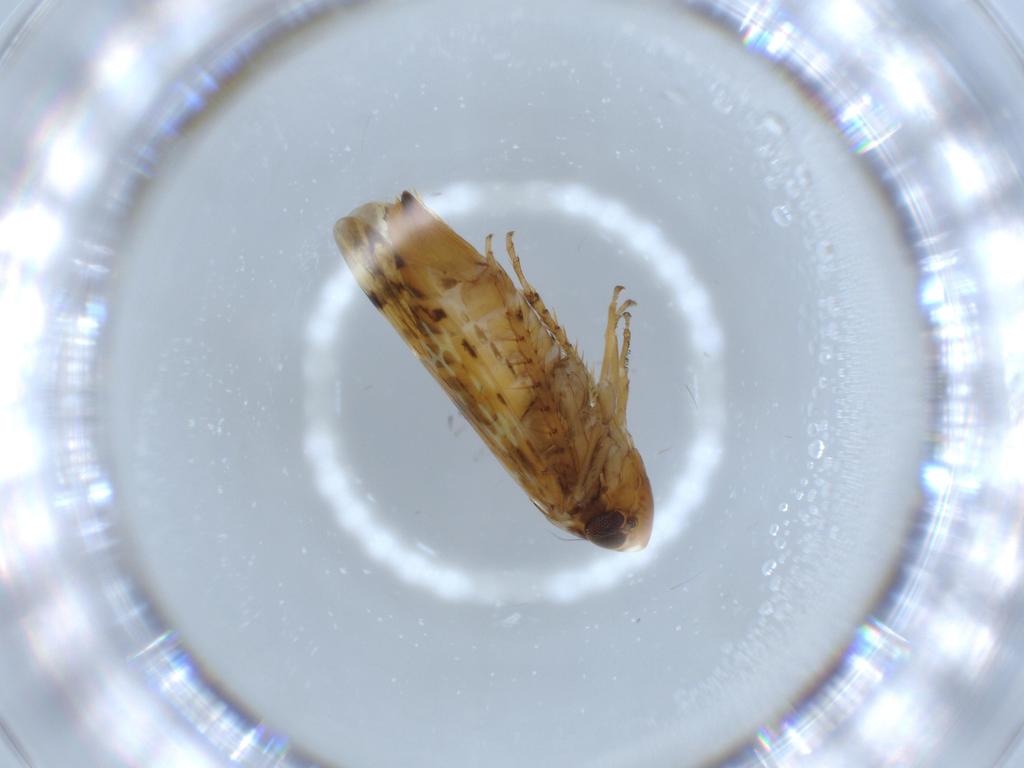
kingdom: Animalia
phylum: Arthropoda
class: Insecta
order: Hemiptera
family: Cicadellidae
